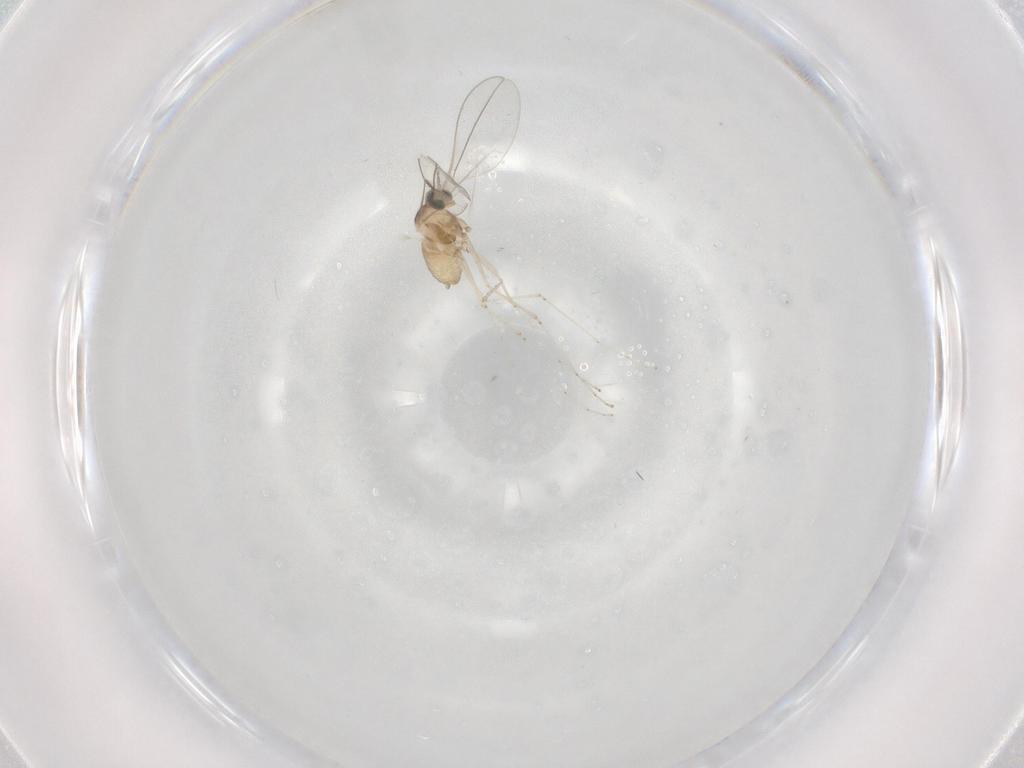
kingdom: Animalia
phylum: Arthropoda
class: Insecta
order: Diptera
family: Cecidomyiidae
